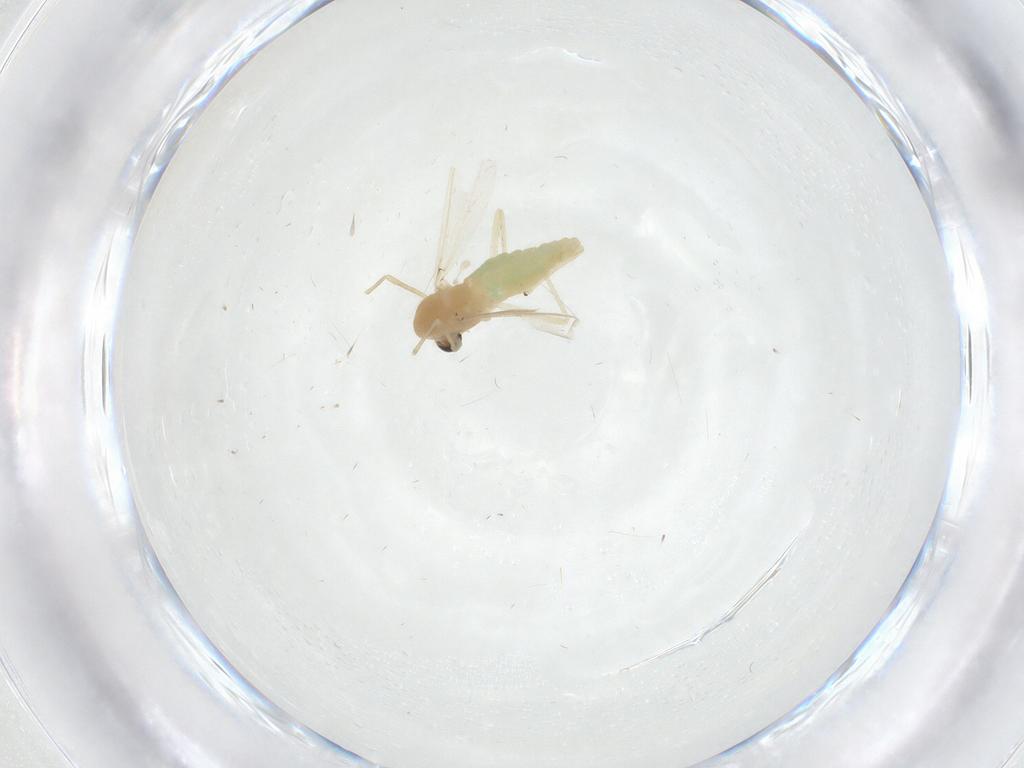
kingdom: Animalia
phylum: Arthropoda
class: Insecta
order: Diptera
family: Chironomidae
